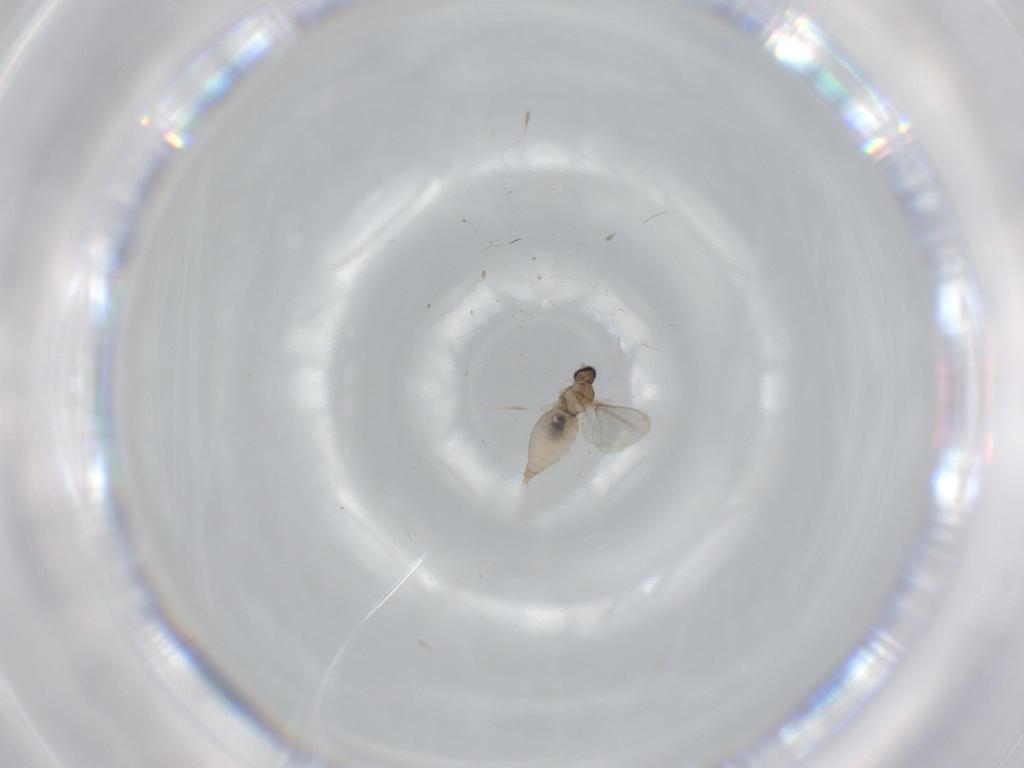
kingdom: Animalia
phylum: Arthropoda
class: Insecta
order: Diptera
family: Cecidomyiidae
